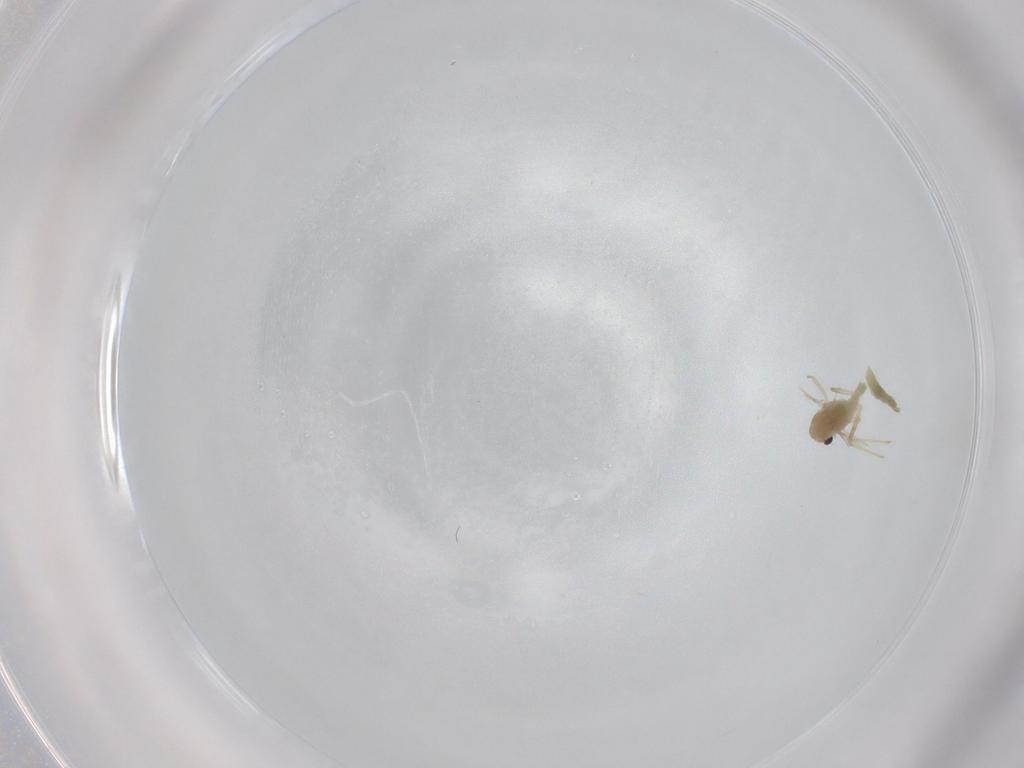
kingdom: Animalia
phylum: Arthropoda
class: Insecta
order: Diptera
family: Chironomidae
